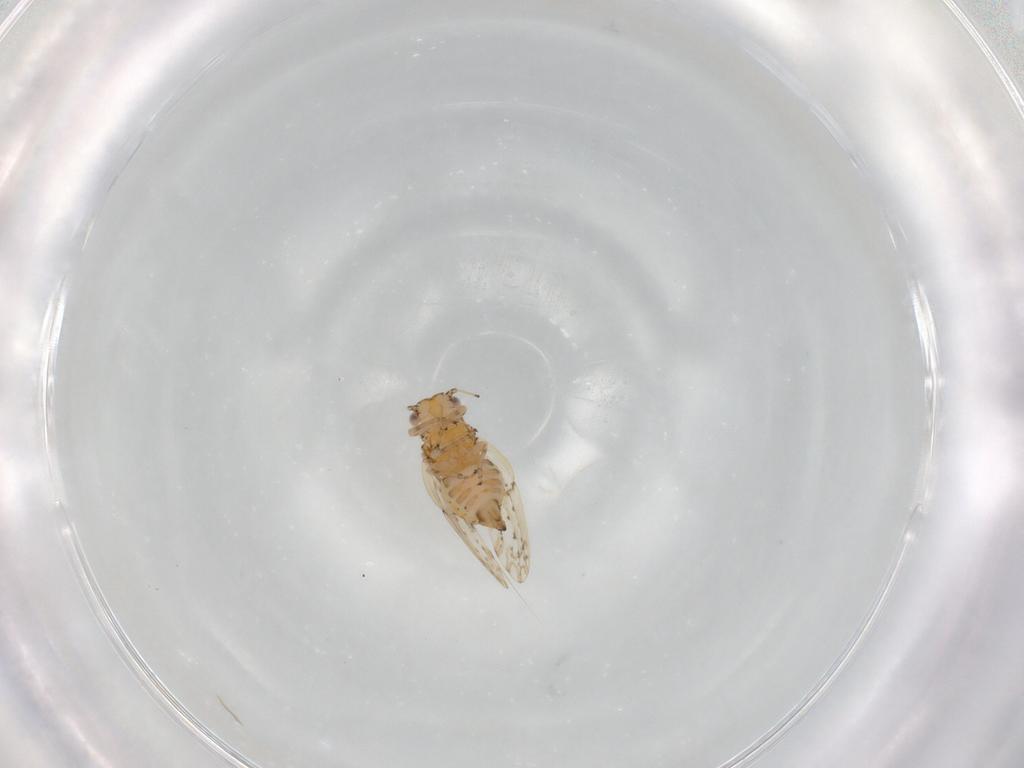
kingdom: Animalia
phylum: Arthropoda
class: Insecta
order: Hemiptera
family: Psylloidea_incertae_sedis
